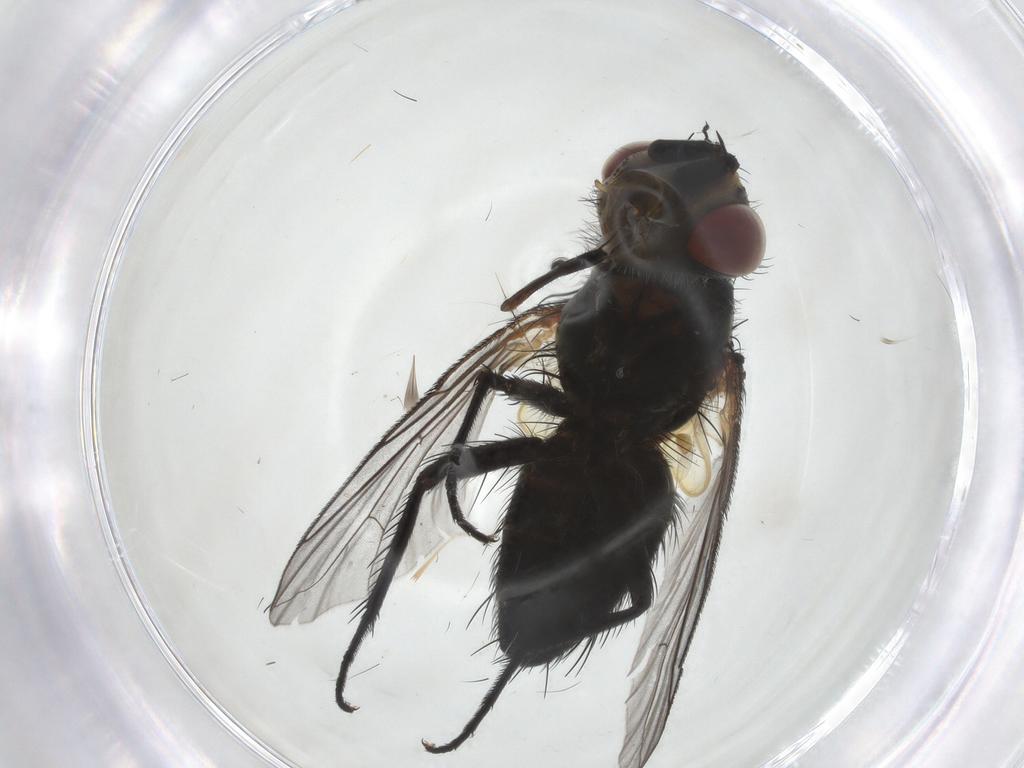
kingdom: Animalia
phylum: Arthropoda
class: Insecta
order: Diptera
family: Tachinidae
